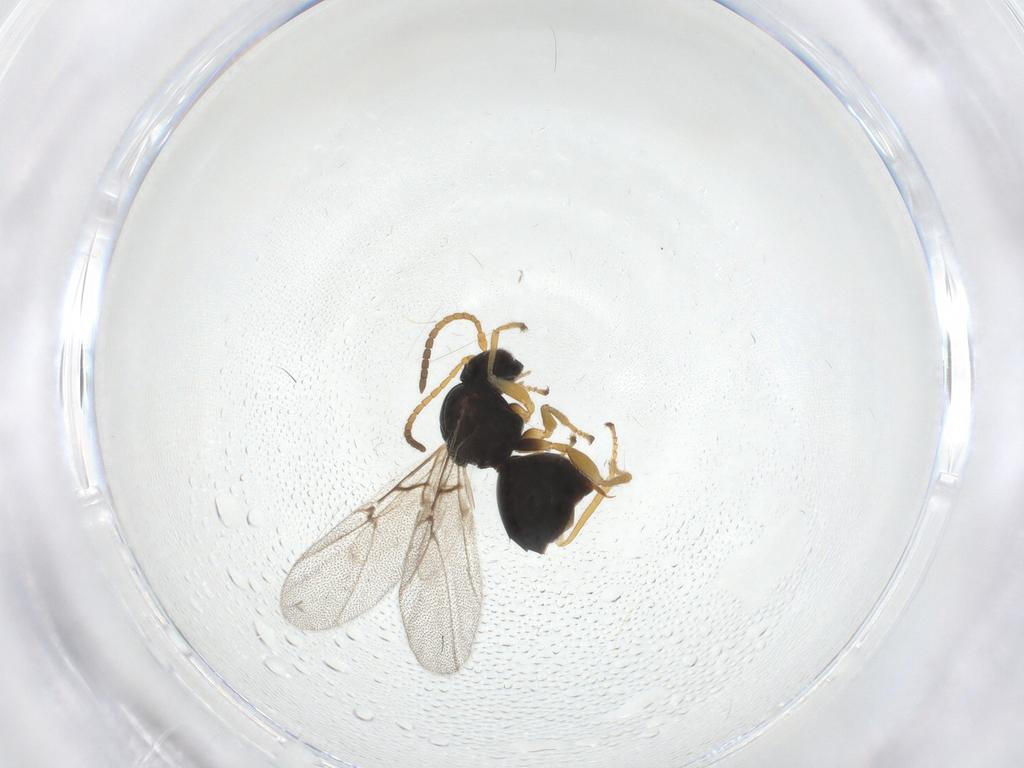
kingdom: Animalia
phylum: Arthropoda
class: Insecta
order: Hymenoptera
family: Cynipidae
